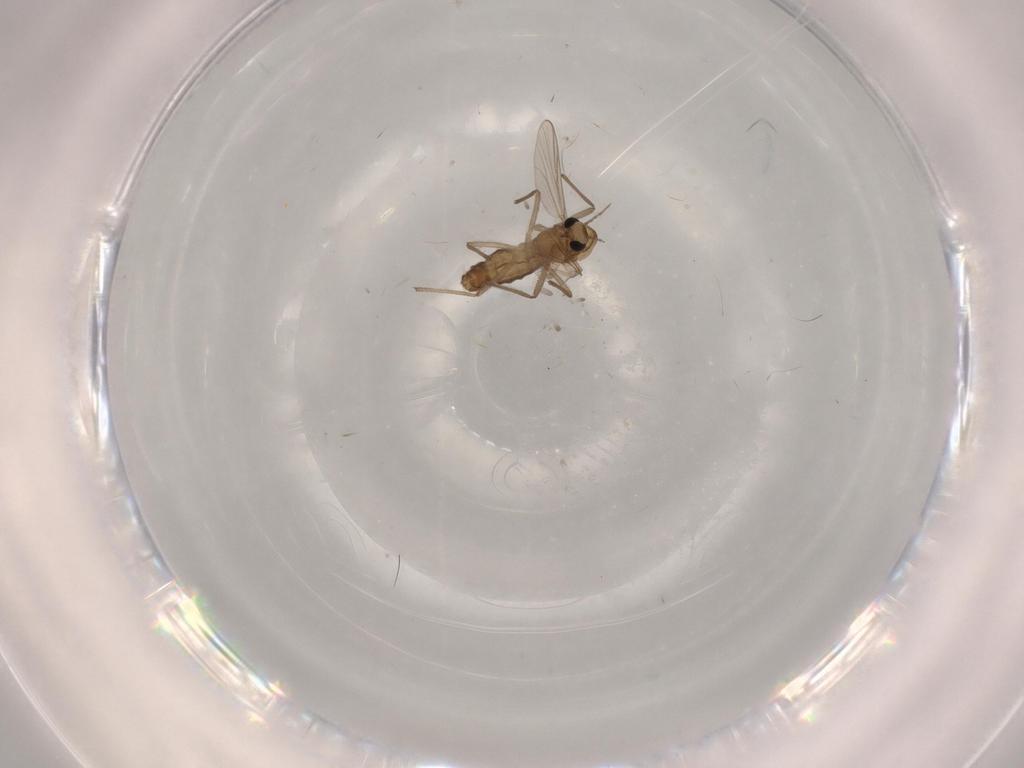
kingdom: Animalia
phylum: Arthropoda
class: Insecta
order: Diptera
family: Chironomidae
